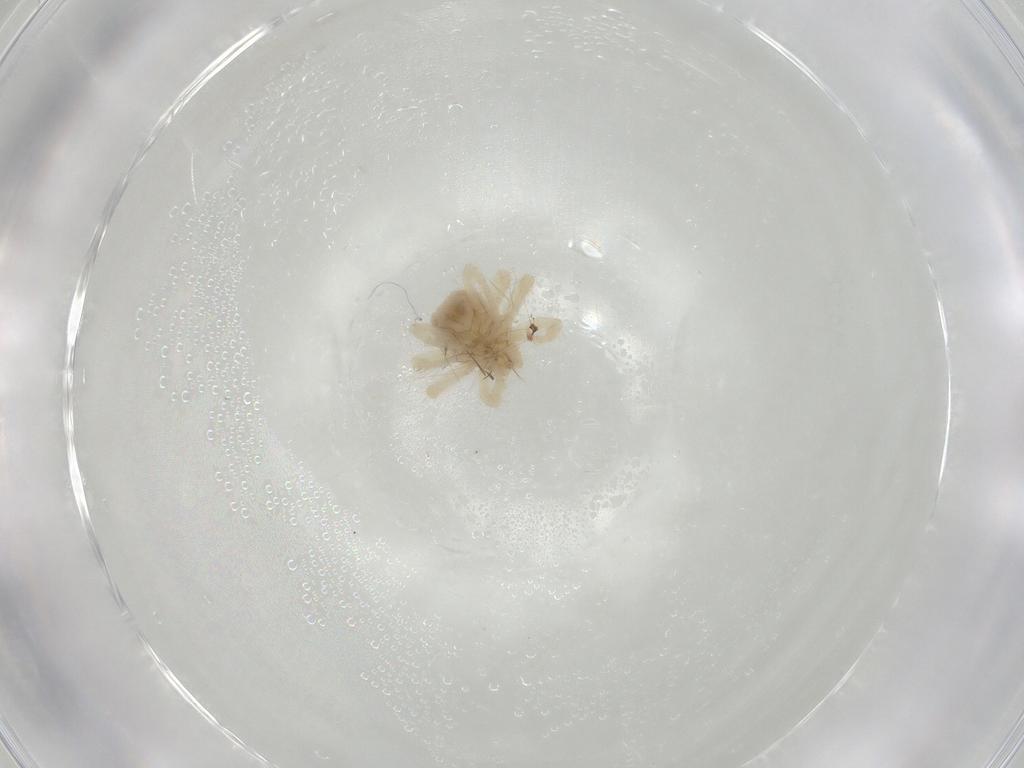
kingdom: Animalia
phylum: Arthropoda
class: Arachnida
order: Trombidiformes
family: Anystidae
